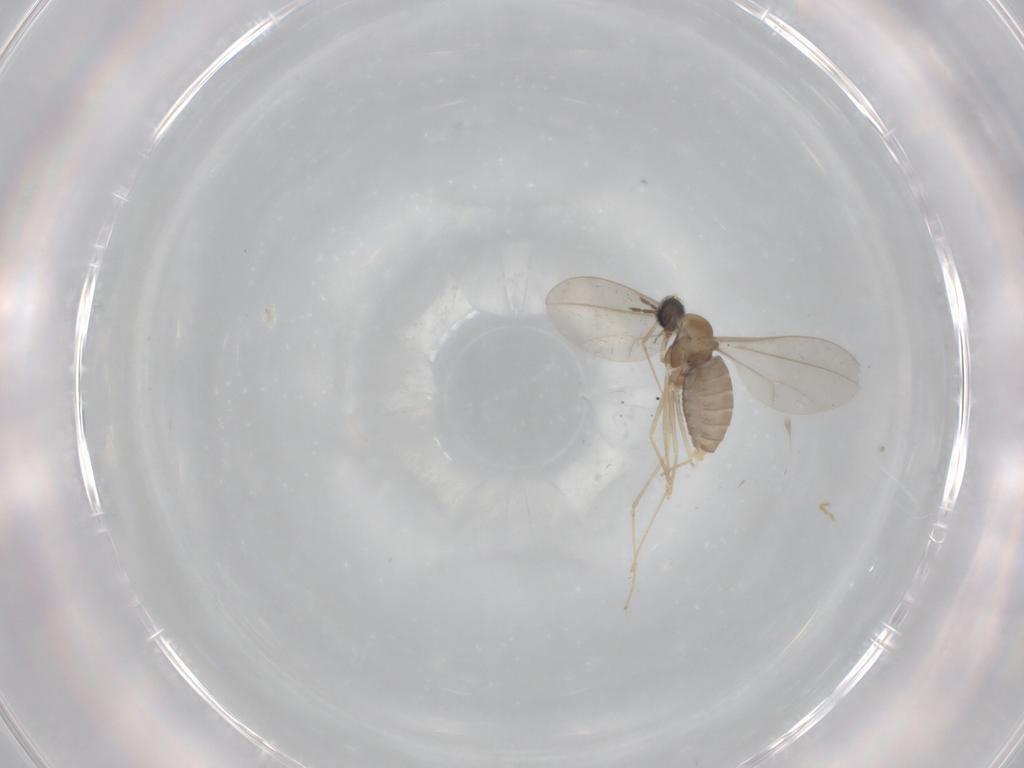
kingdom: Animalia
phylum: Arthropoda
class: Insecta
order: Diptera
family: Cecidomyiidae
